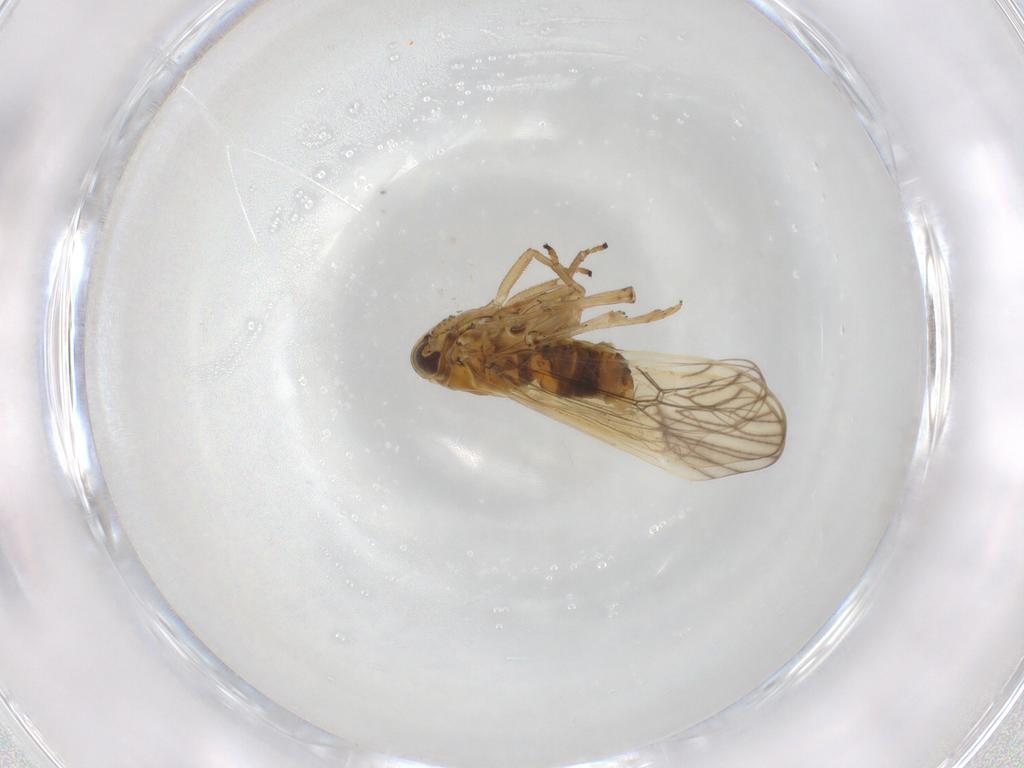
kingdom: Animalia
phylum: Arthropoda
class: Insecta
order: Hemiptera
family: Delphacidae
